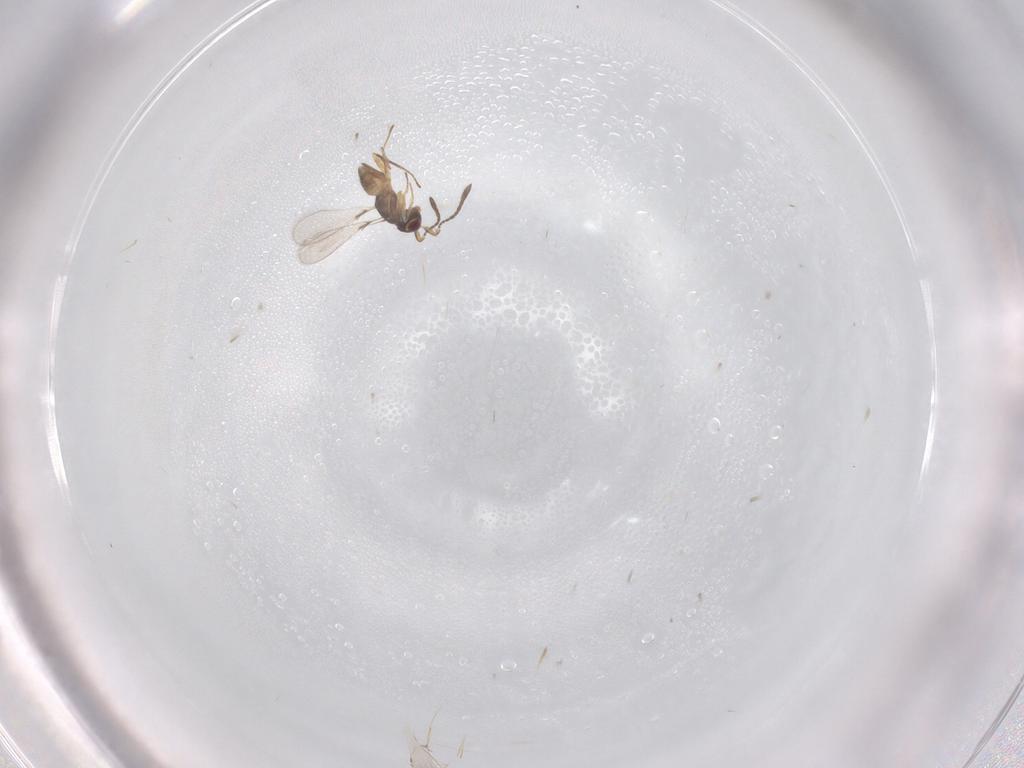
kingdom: Animalia
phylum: Arthropoda
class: Insecta
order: Hymenoptera
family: Mymaridae
